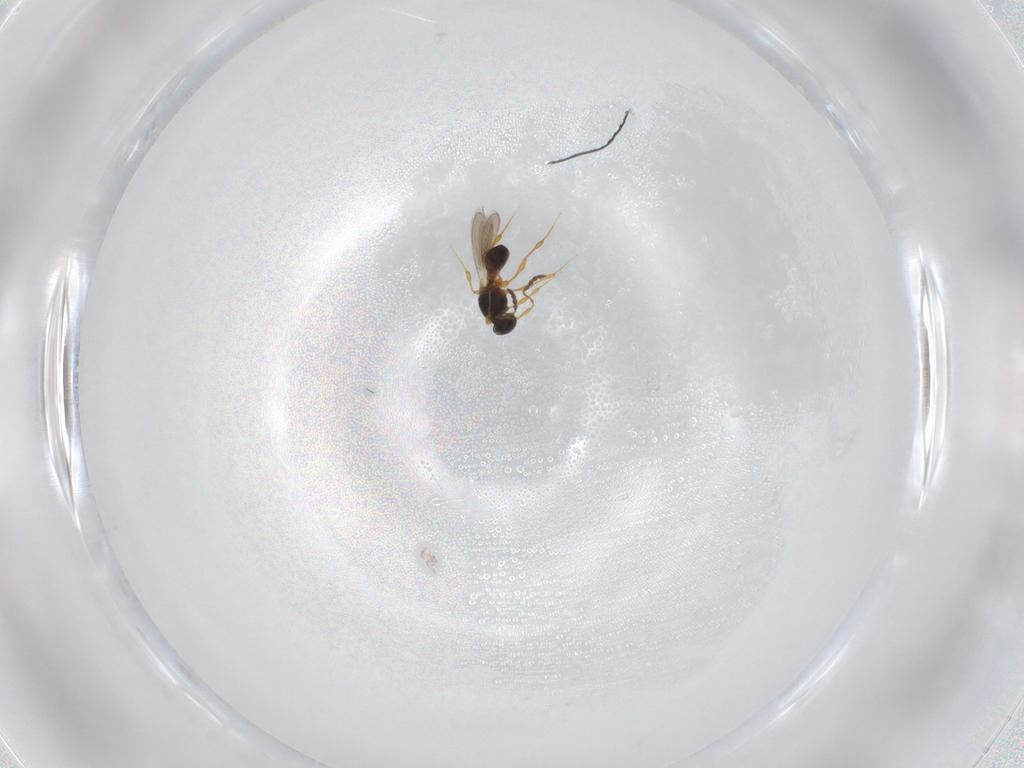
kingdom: Animalia
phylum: Arthropoda
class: Insecta
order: Hymenoptera
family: Platygastridae
